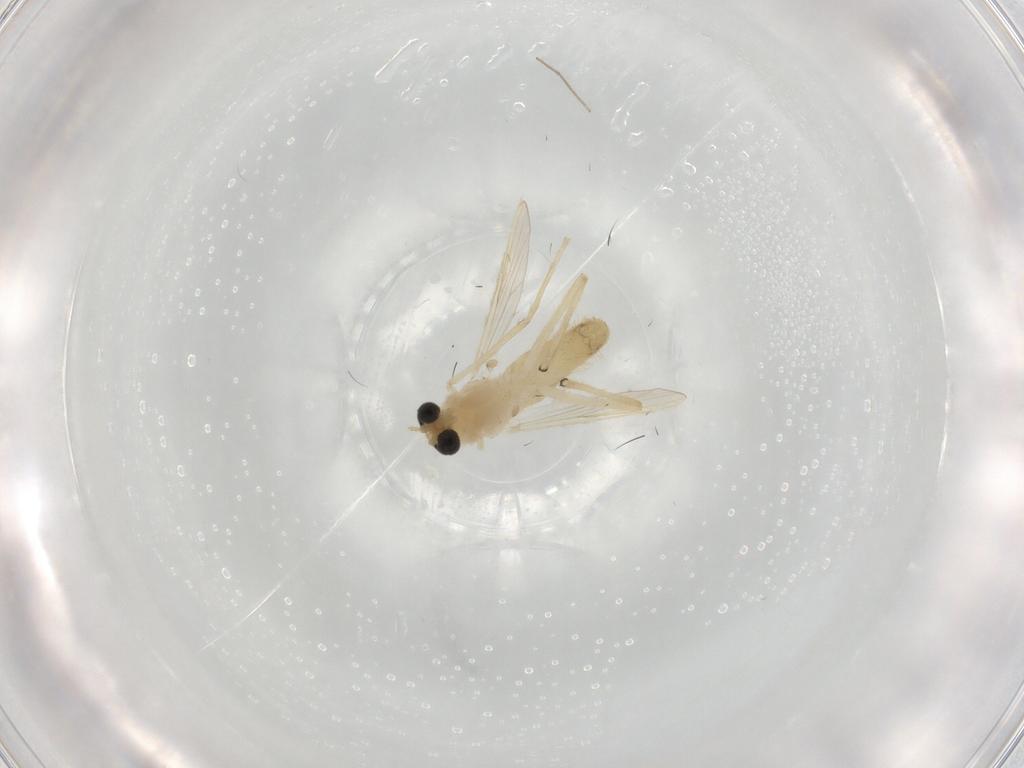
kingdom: Animalia
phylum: Arthropoda
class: Insecta
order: Diptera
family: Chironomidae
